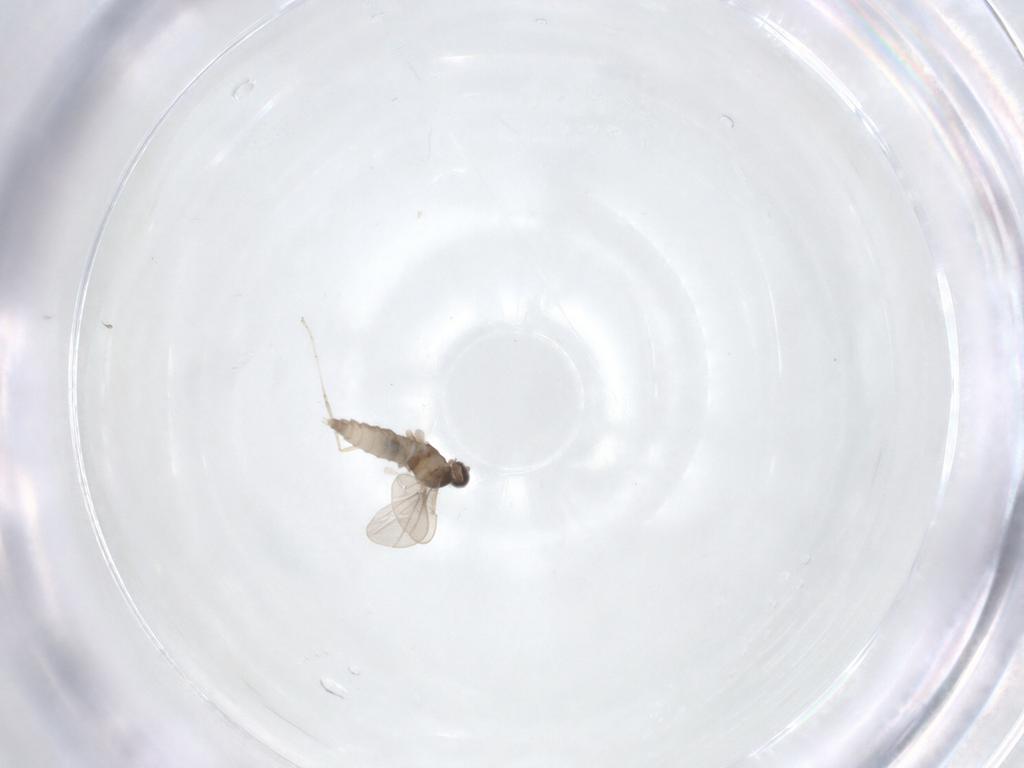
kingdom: Animalia
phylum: Arthropoda
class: Insecta
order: Diptera
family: Cecidomyiidae
